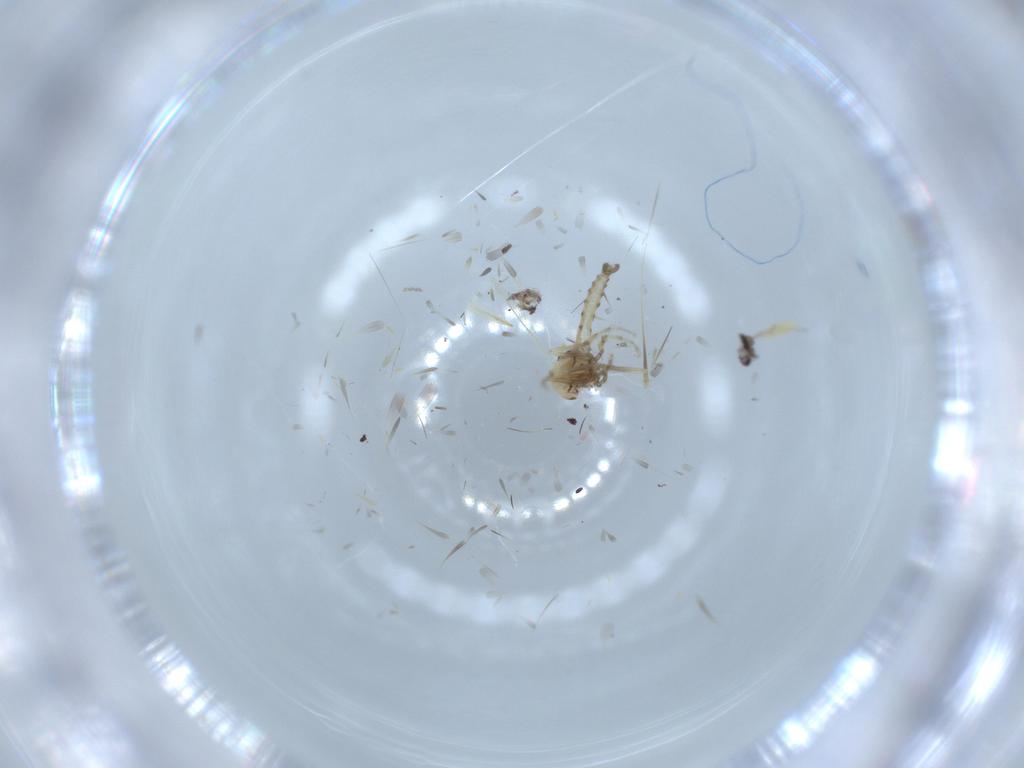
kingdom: Animalia
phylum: Arthropoda
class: Insecta
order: Diptera
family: Ceratopogonidae
